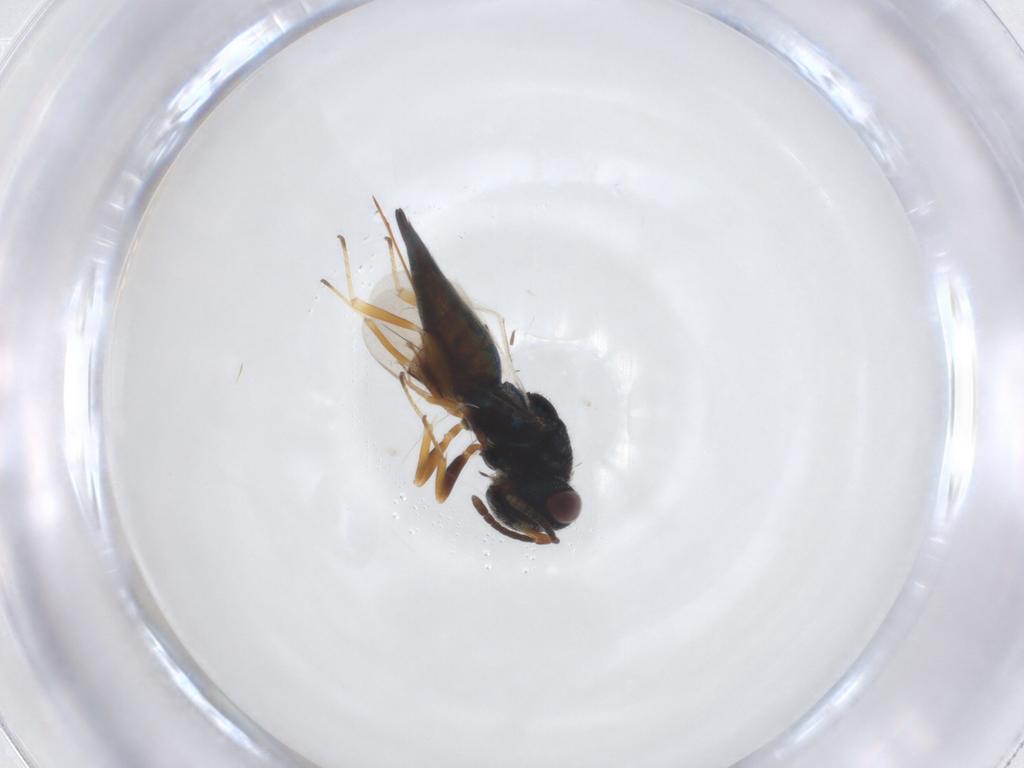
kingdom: Animalia
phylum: Arthropoda
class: Insecta
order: Hymenoptera
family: Pteromalidae
